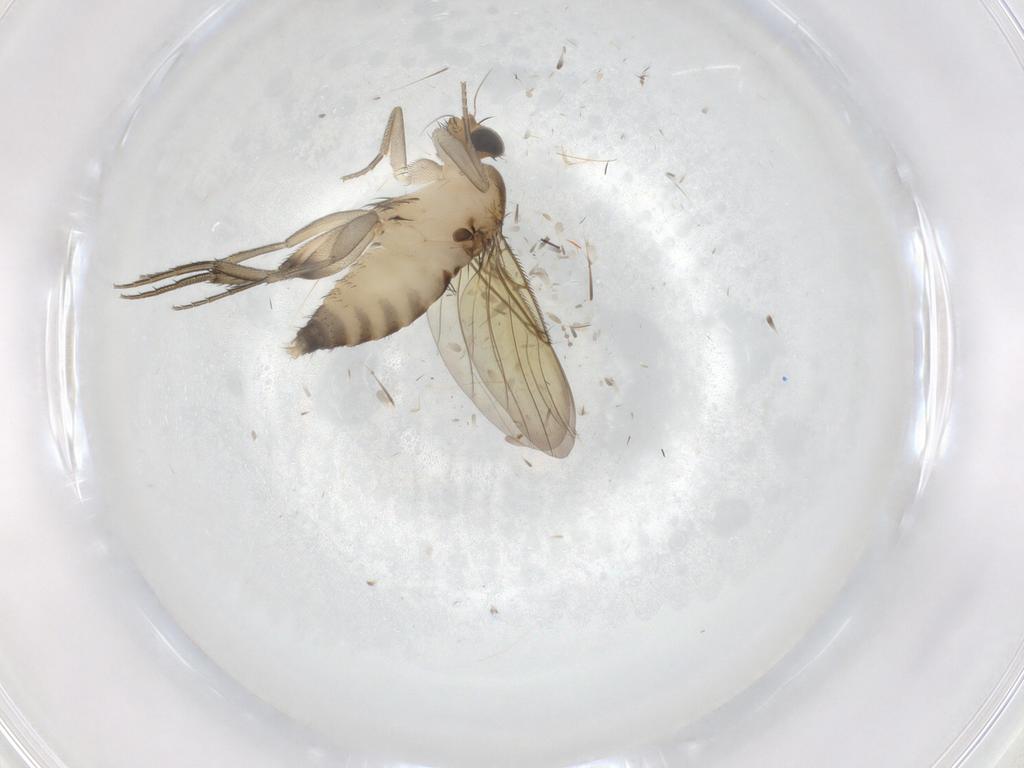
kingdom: Animalia
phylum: Arthropoda
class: Insecta
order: Diptera
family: Phoridae
